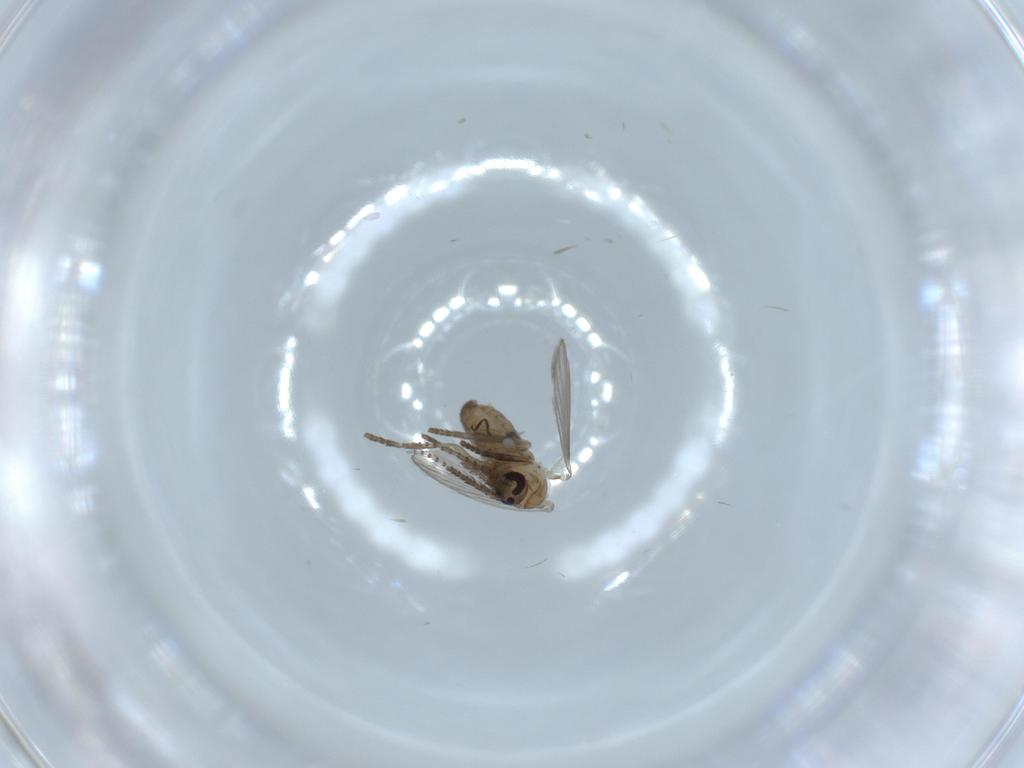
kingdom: Animalia
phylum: Arthropoda
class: Insecta
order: Diptera
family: Psychodidae
